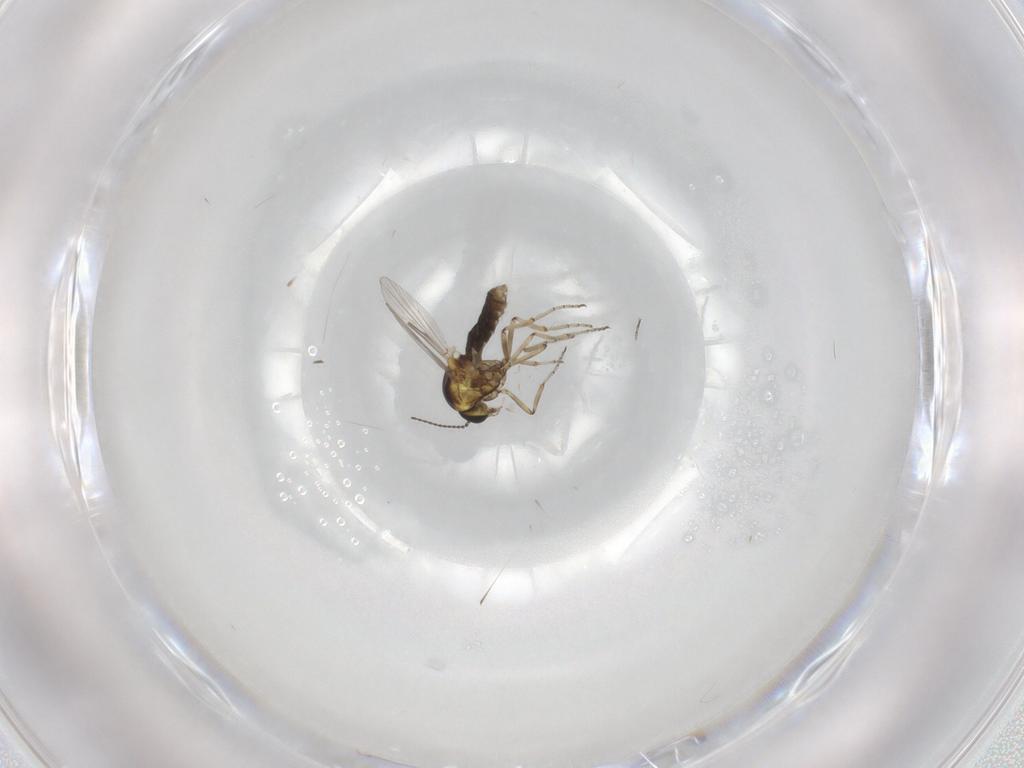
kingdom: Animalia
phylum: Arthropoda
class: Insecta
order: Diptera
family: Ceratopogonidae
